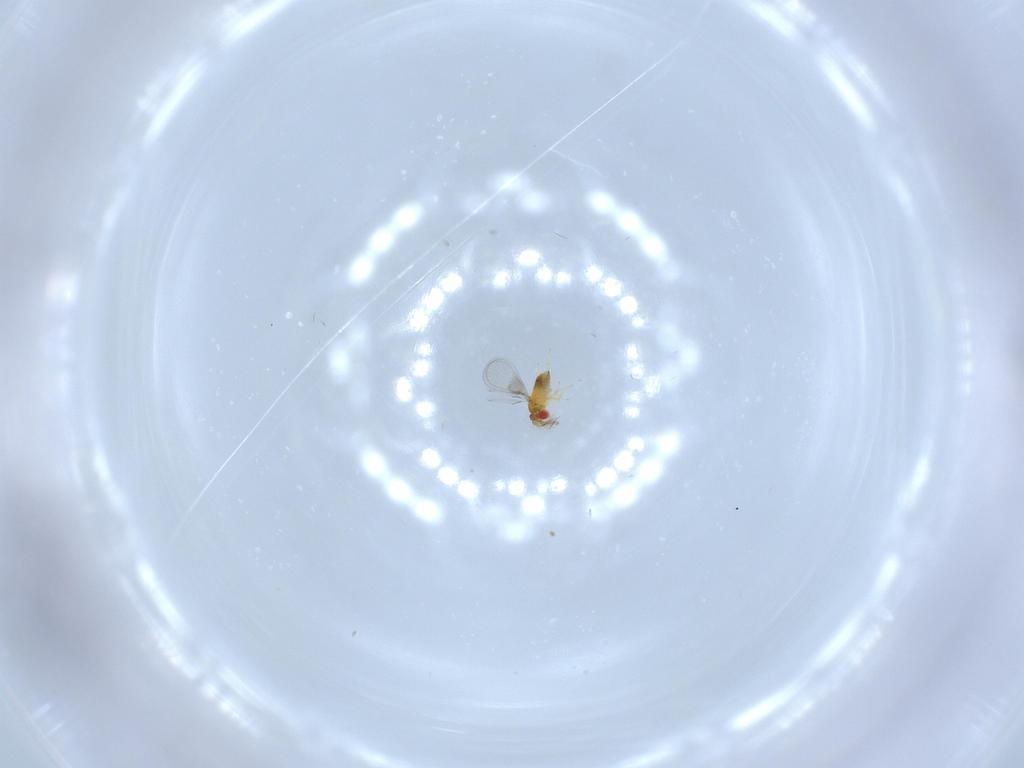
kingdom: Animalia
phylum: Arthropoda
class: Insecta
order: Hymenoptera
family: Trichogrammatidae
